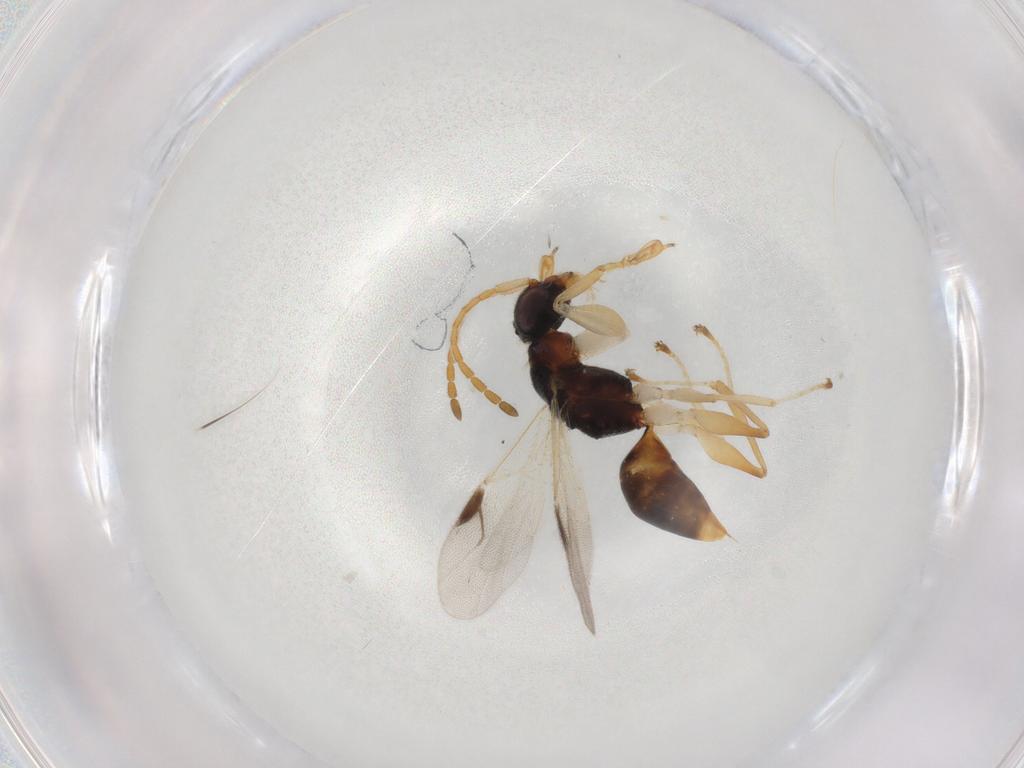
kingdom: Animalia
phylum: Arthropoda
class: Insecta
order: Hymenoptera
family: Dryinidae
